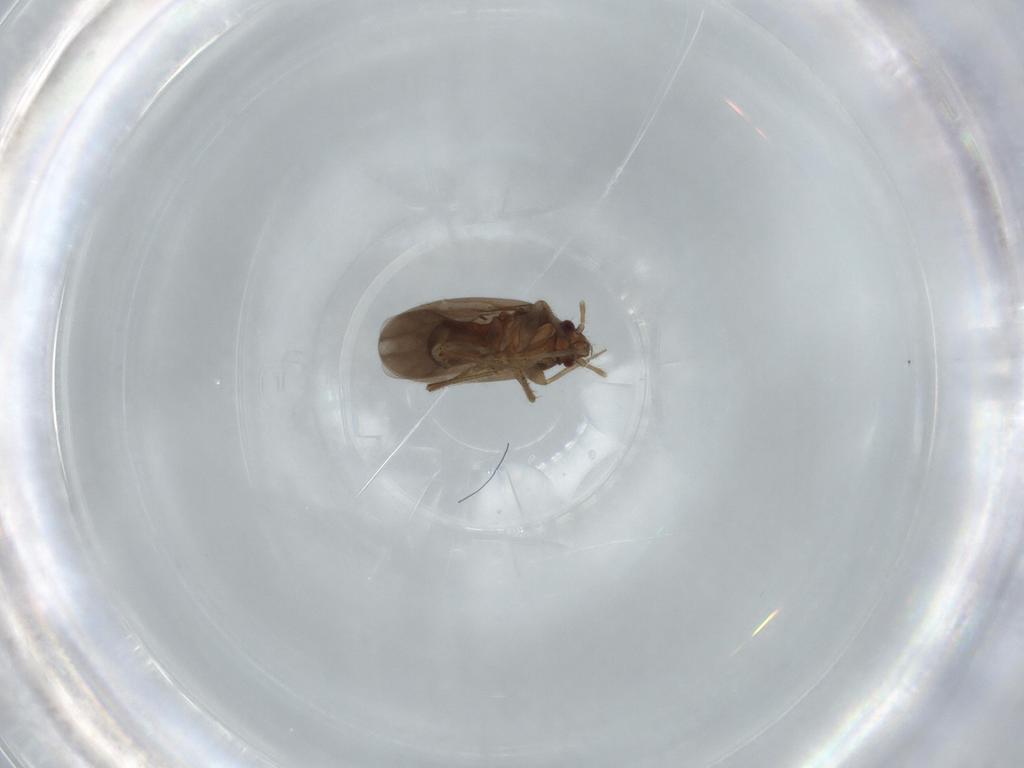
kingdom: Animalia
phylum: Arthropoda
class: Insecta
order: Hemiptera
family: Ceratocombidae
